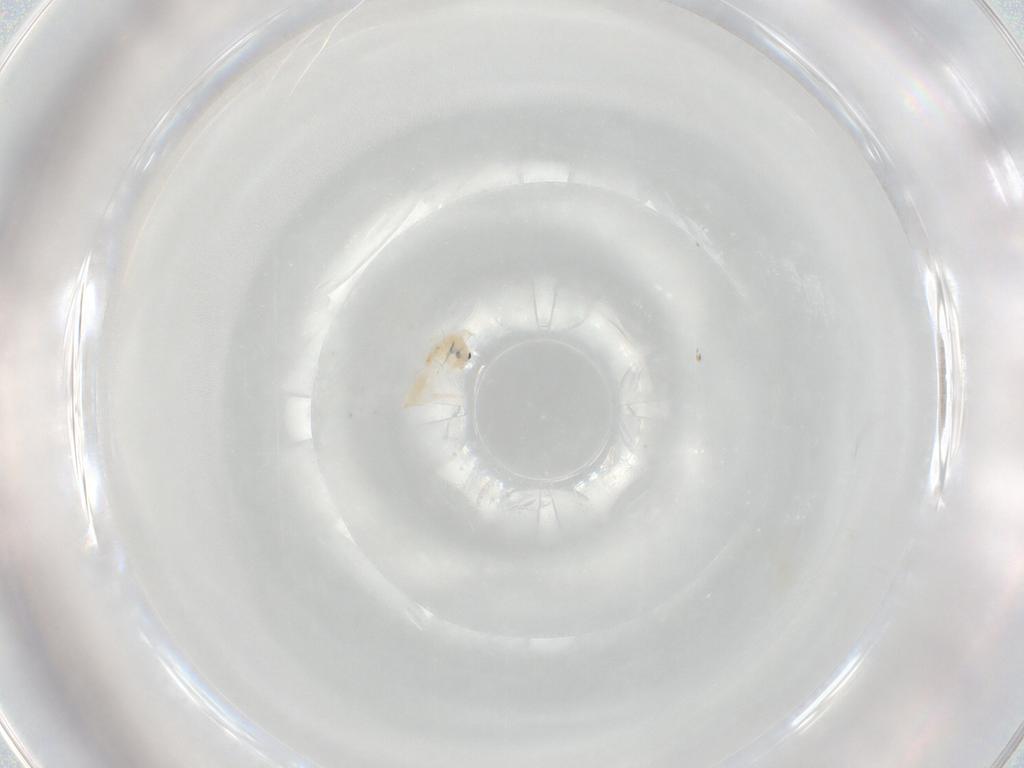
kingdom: Animalia
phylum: Arthropoda
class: Collembola
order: Entomobryomorpha
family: Entomobryidae
